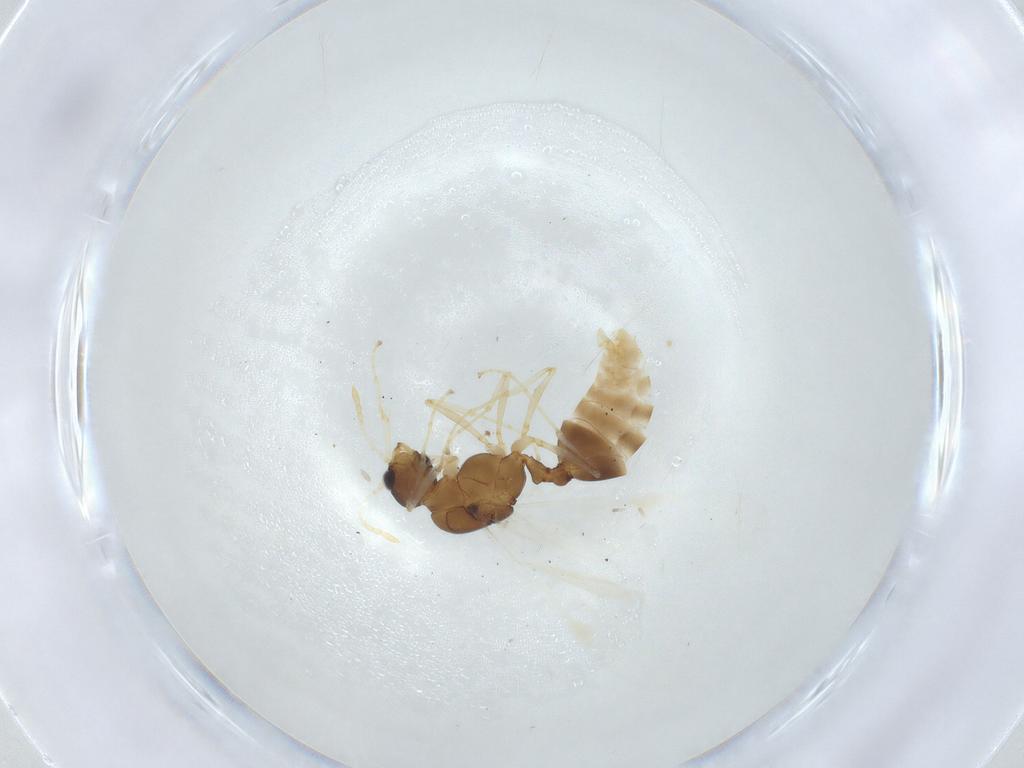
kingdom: Animalia
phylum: Arthropoda
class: Insecta
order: Hymenoptera
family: Formicidae
